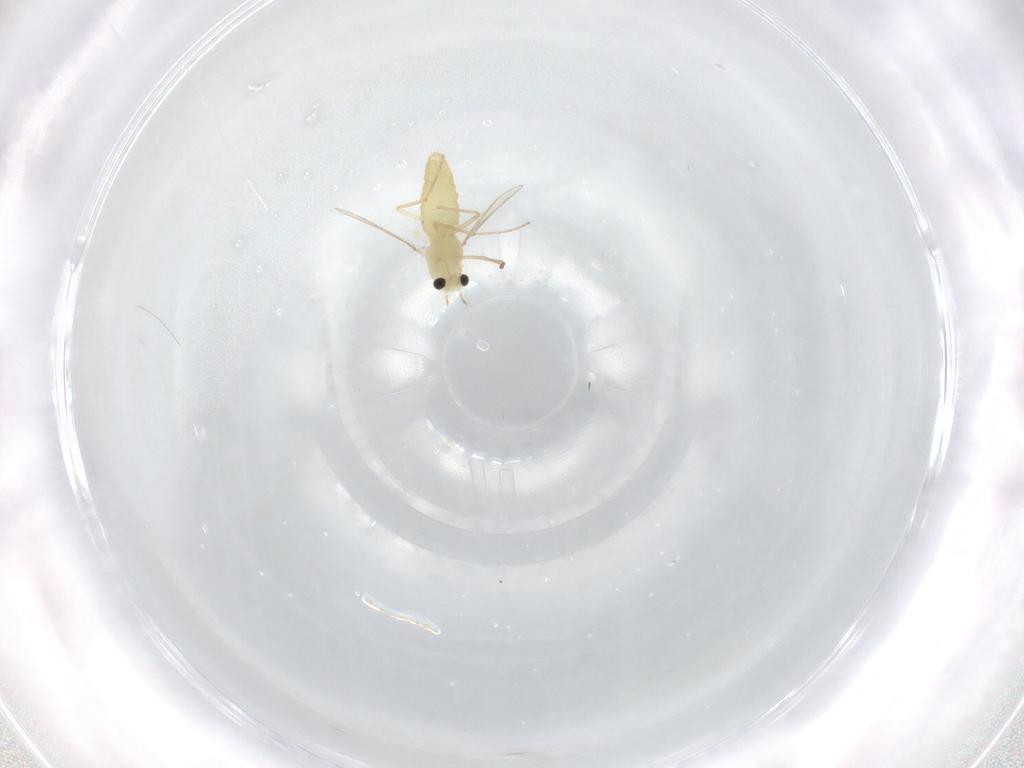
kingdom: Animalia
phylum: Arthropoda
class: Insecta
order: Diptera
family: Chironomidae
